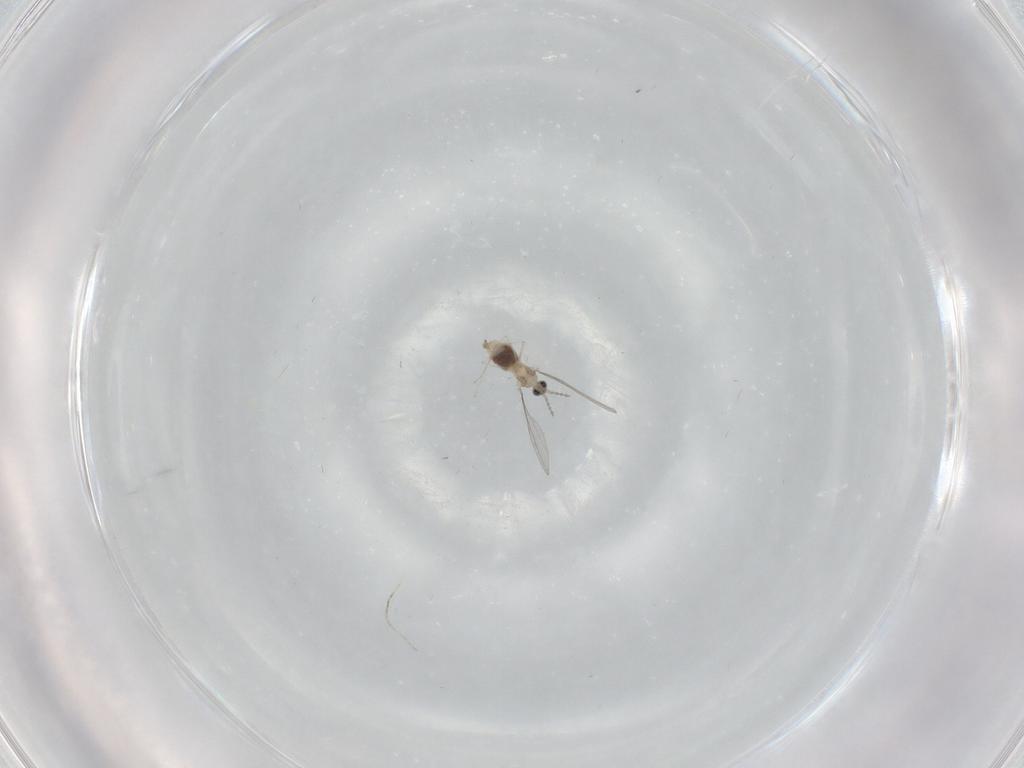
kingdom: Animalia
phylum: Arthropoda
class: Insecta
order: Diptera
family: Cecidomyiidae
